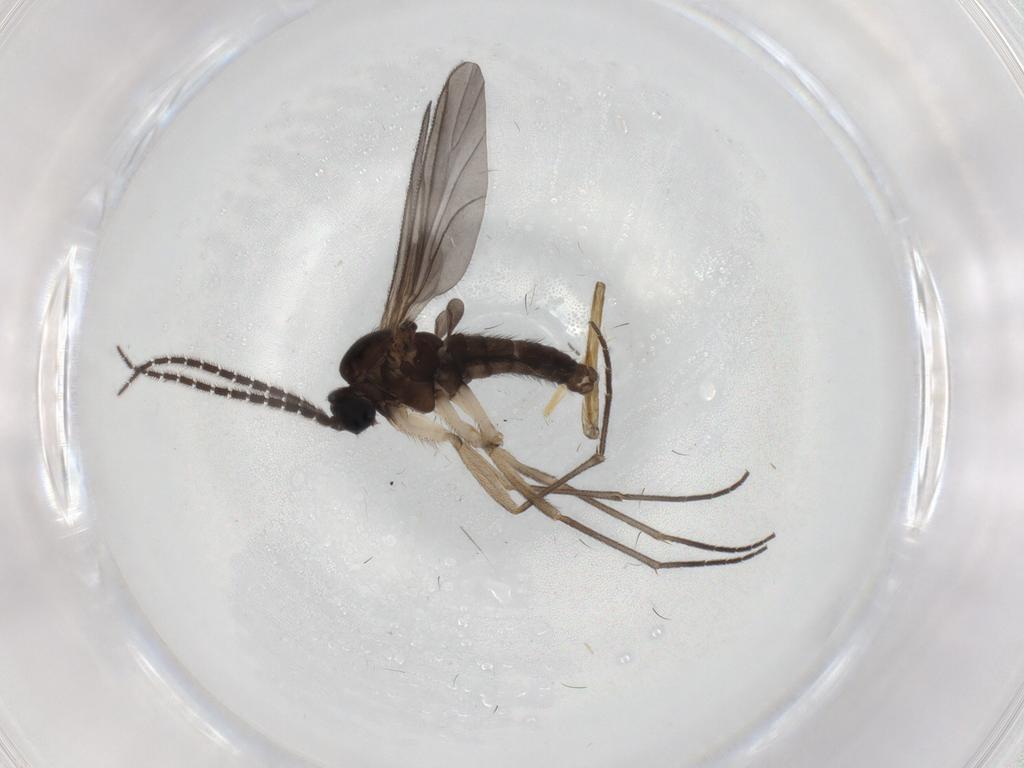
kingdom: Animalia
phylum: Arthropoda
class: Insecta
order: Diptera
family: Sciaridae
